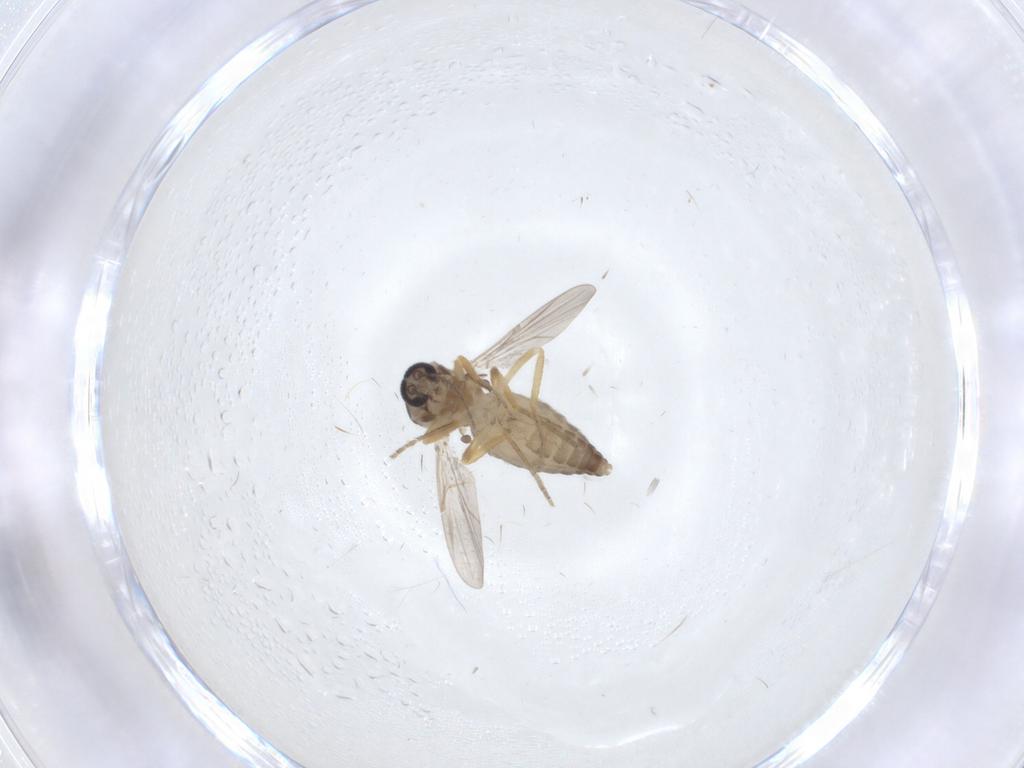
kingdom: Animalia
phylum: Arthropoda
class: Insecta
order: Diptera
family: Ceratopogonidae
